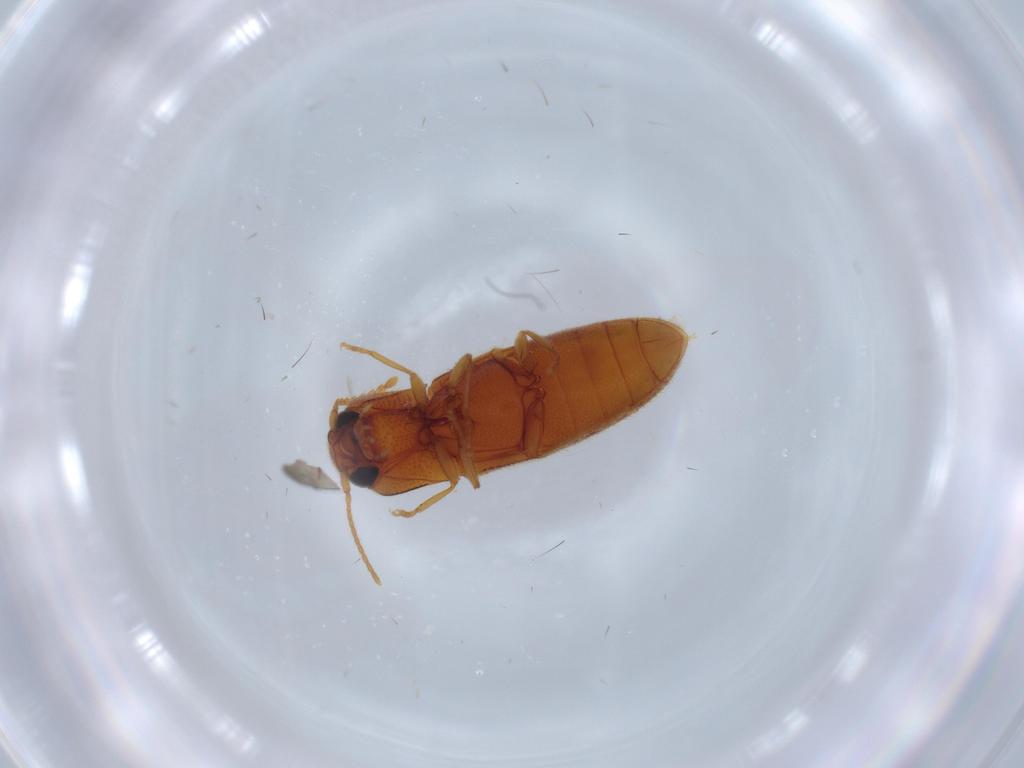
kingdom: Animalia
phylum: Arthropoda
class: Insecta
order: Coleoptera
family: Elateridae
